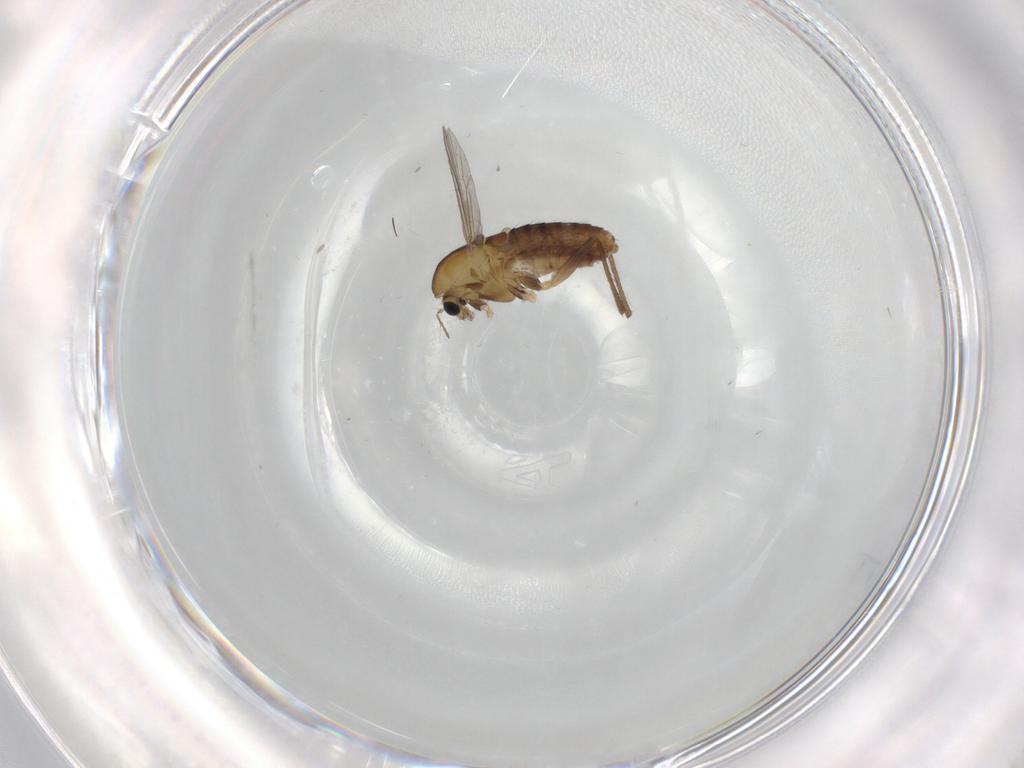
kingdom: Animalia
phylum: Arthropoda
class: Insecta
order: Diptera
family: Chironomidae
